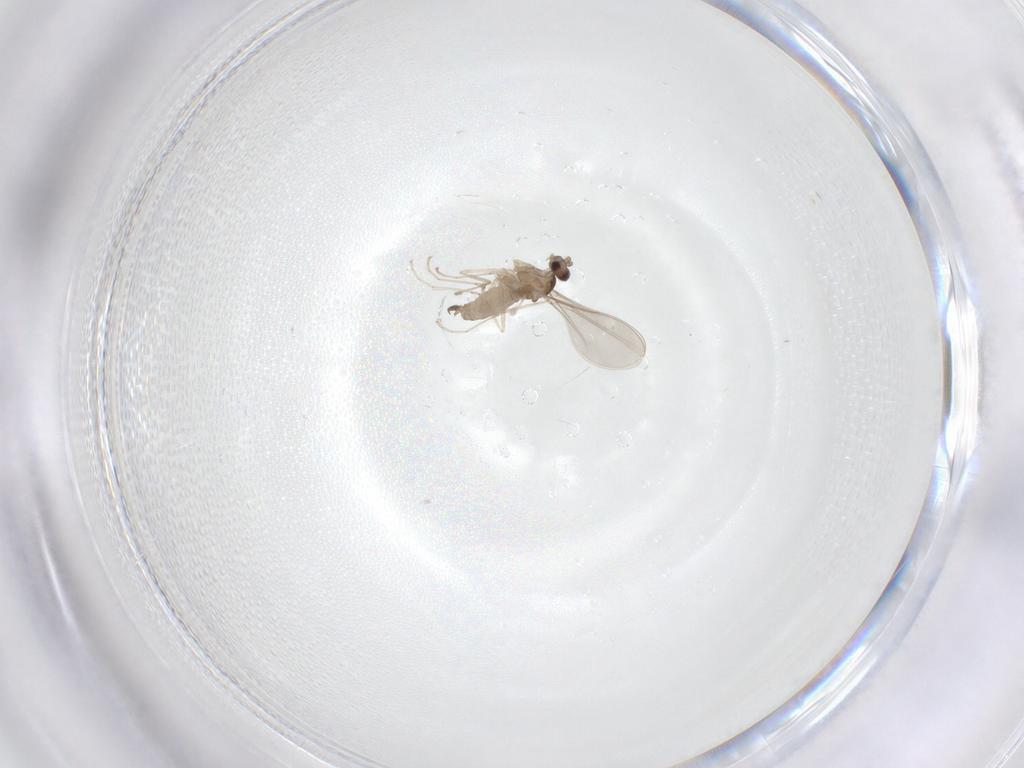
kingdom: Animalia
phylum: Arthropoda
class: Insecta
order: Diptera
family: Cecidomyiidae
